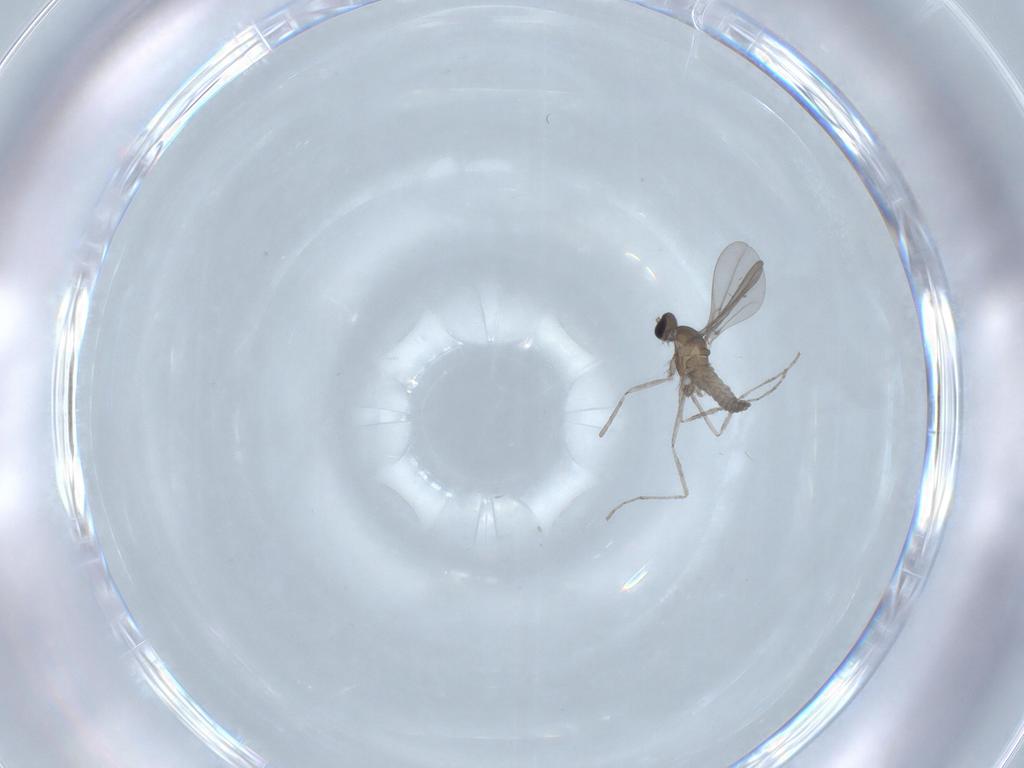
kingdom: Animalia
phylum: Arthropoda
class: Insecta
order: Diptera
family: Cecidomyiidae
